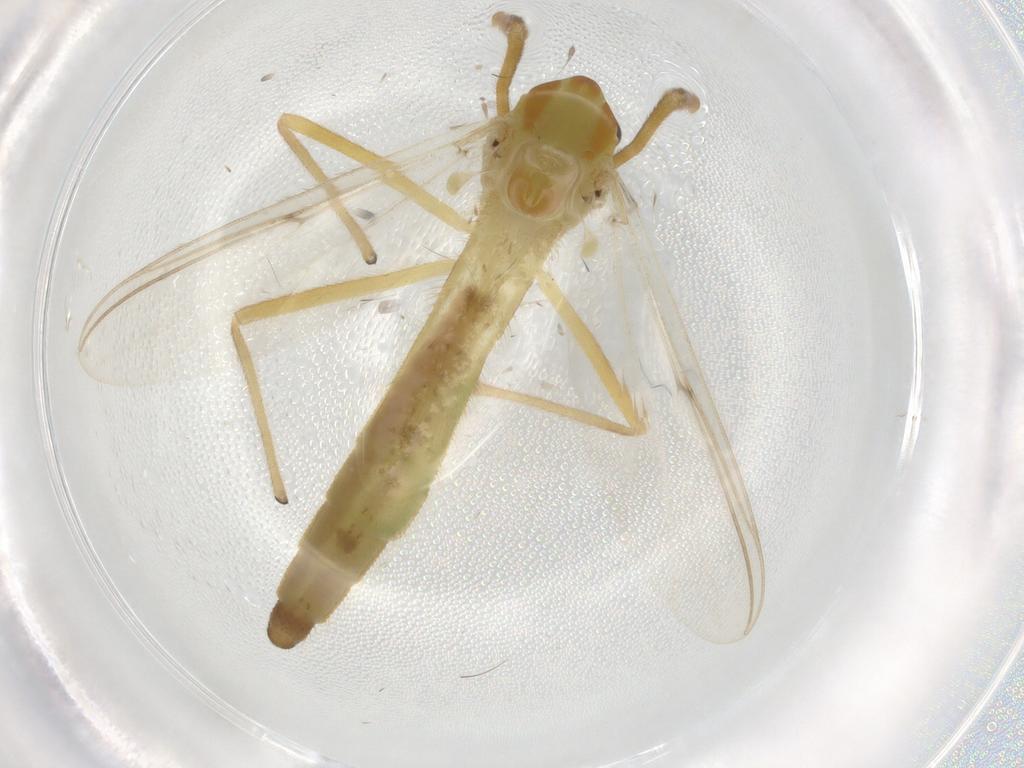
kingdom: Animalia
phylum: Arthropoda
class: Insecta
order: Diptera
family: Chironomidae
